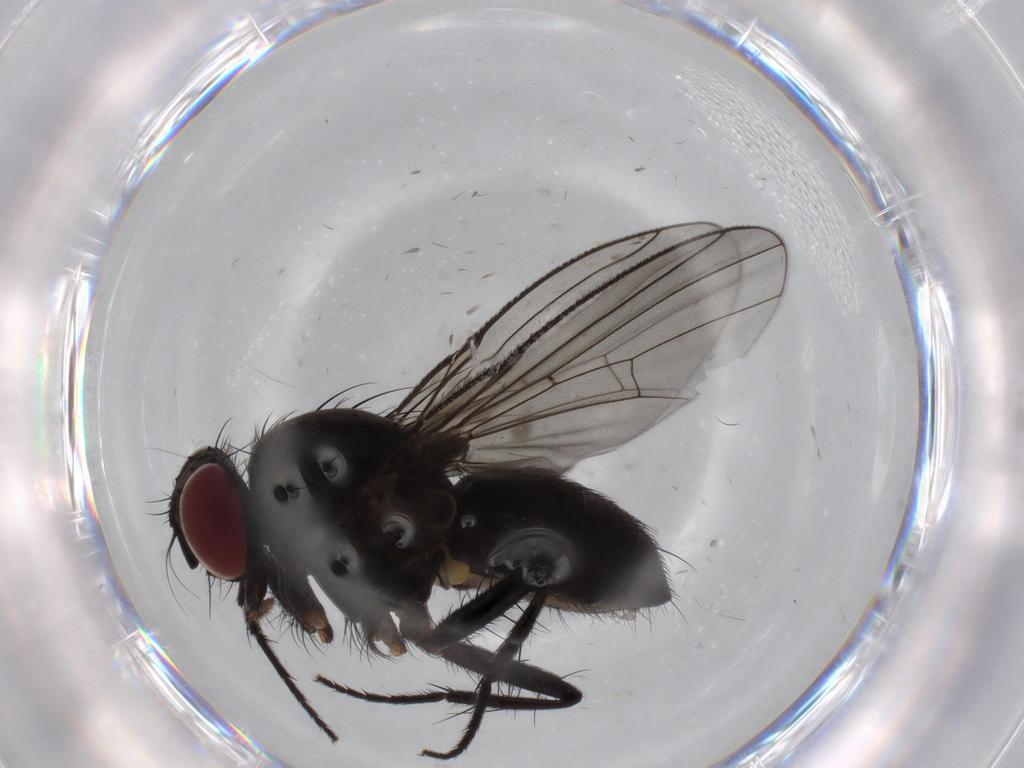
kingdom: Animalia
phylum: Arthropoda
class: Insecta
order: Diptera
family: Muscidae
